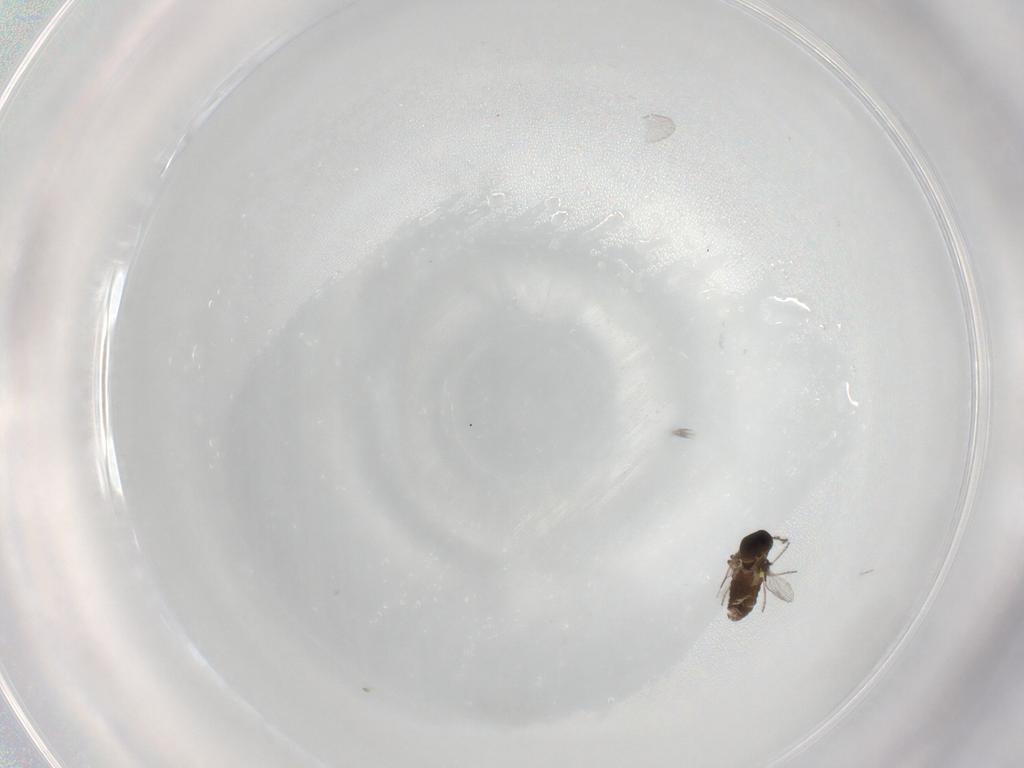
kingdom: Animalia
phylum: Arthropoda
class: Insecta
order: Diptera
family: Ceratopogonidae
